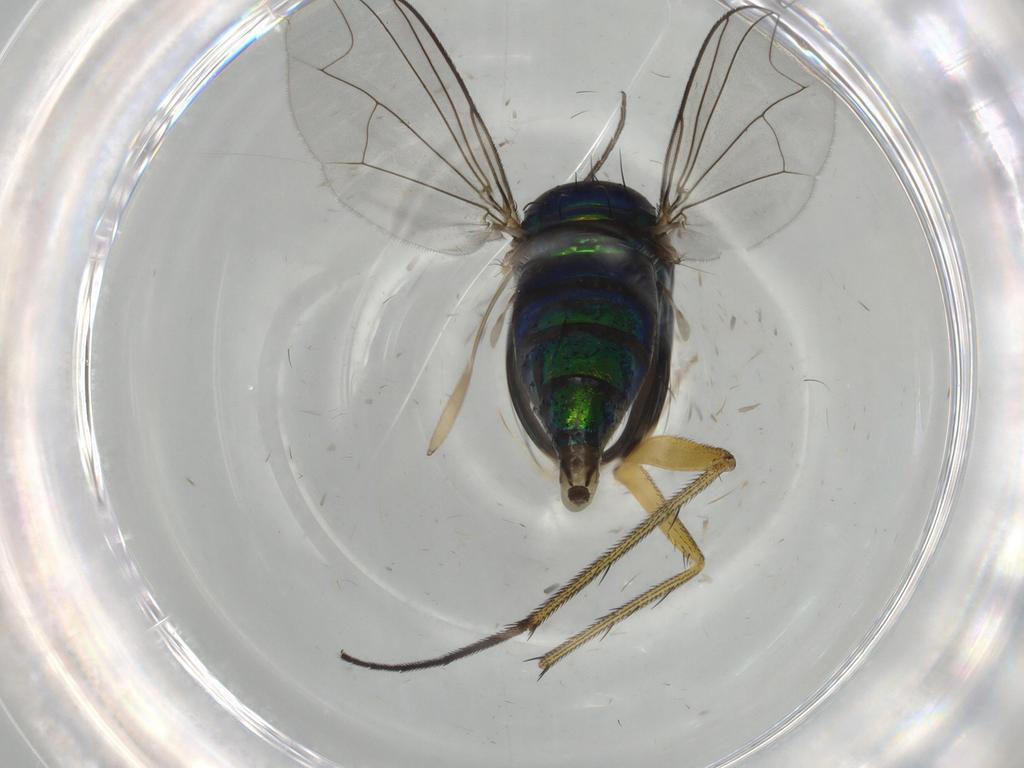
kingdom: Animalia
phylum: Arthropoda
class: Insecta
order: Diptera
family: Dolichopodidae
